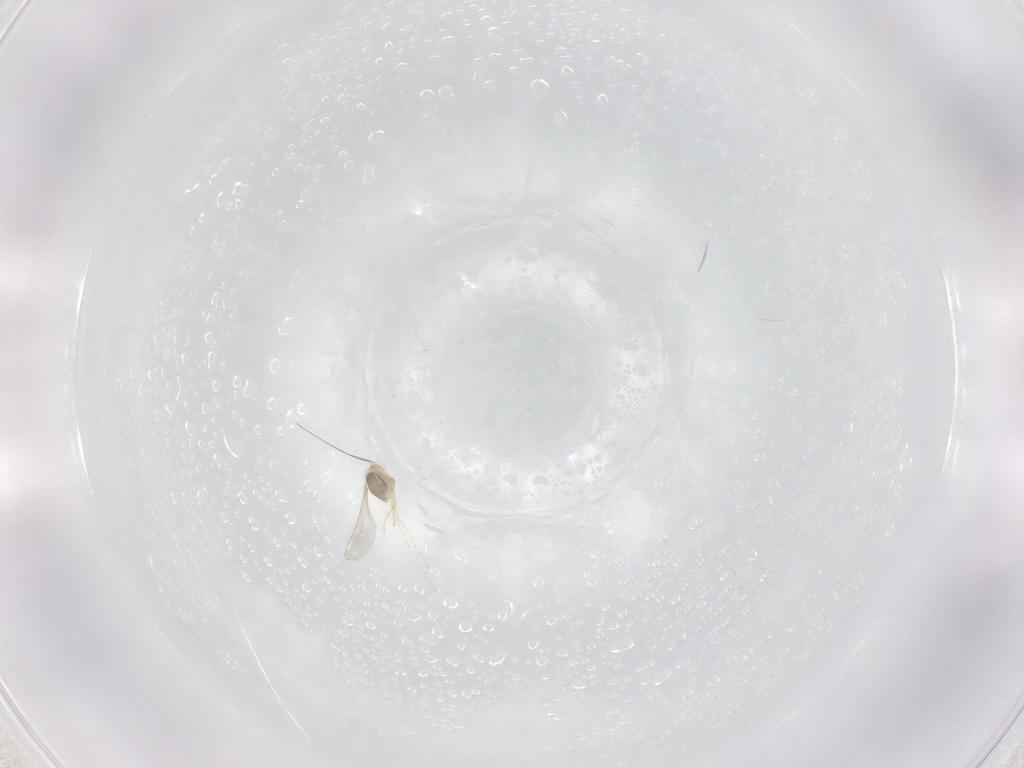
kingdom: Animalia
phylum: Arthropoda
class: Insecta
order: Diptera
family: Cecidomyiidae
